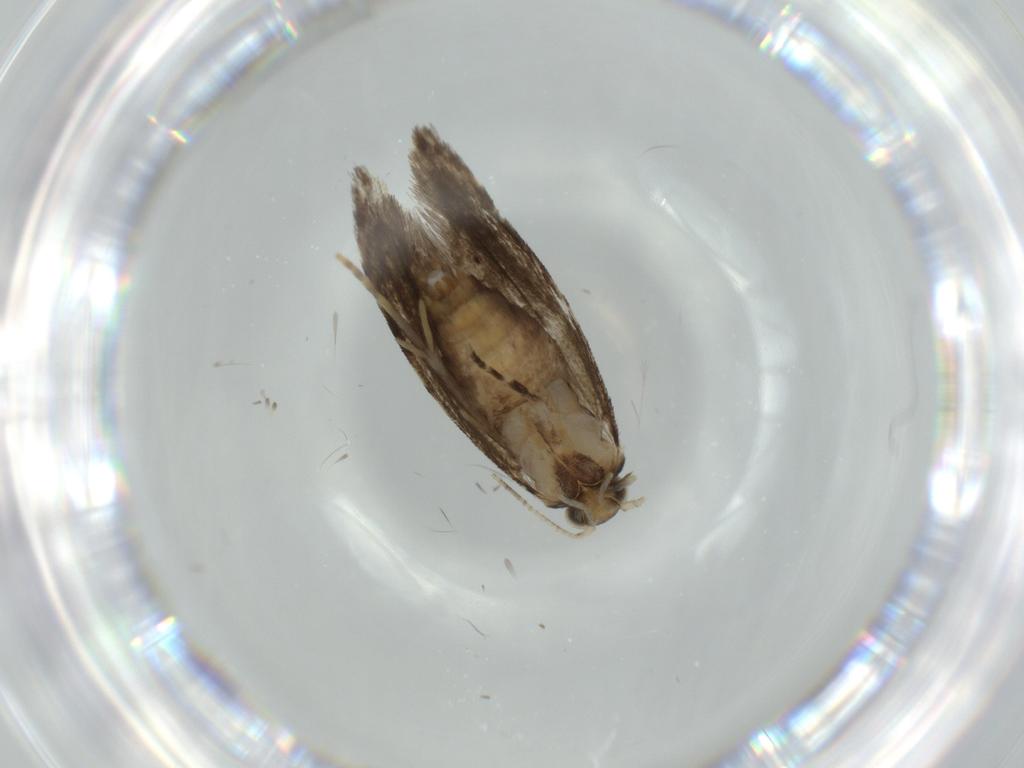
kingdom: Animalia
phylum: Arthropoda
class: Insecta
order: Lepidoptera
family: Tineidae
